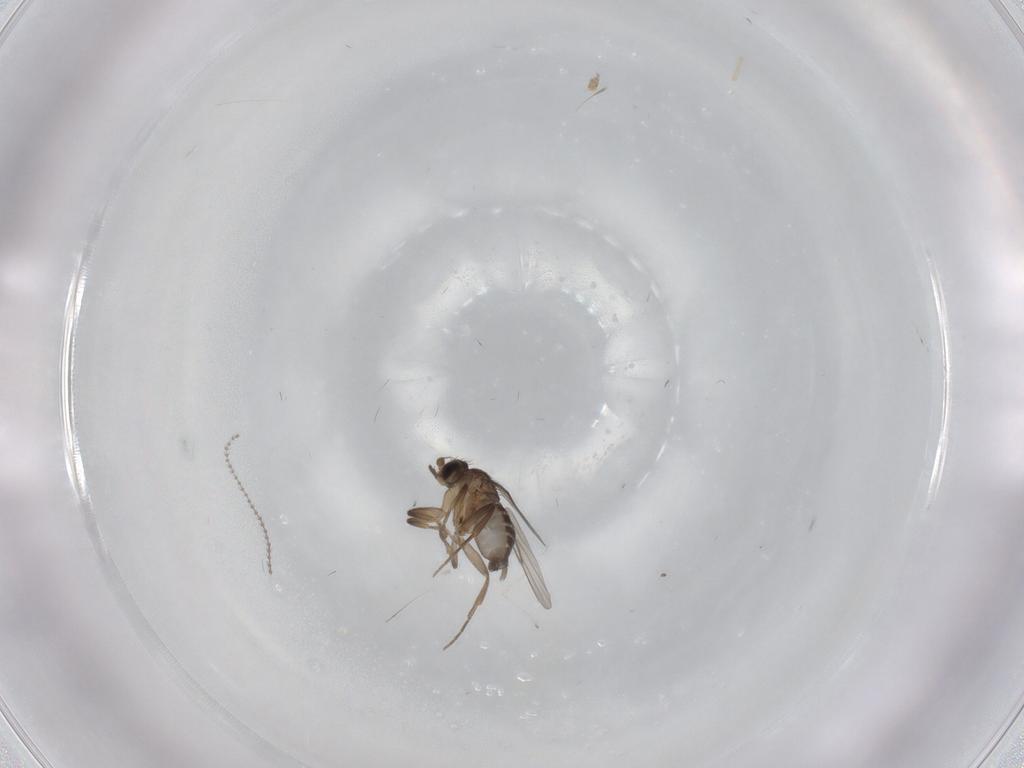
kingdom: Animalia
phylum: Arthropoda
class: Insecta
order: Diptera
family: Cecidomyiidae
